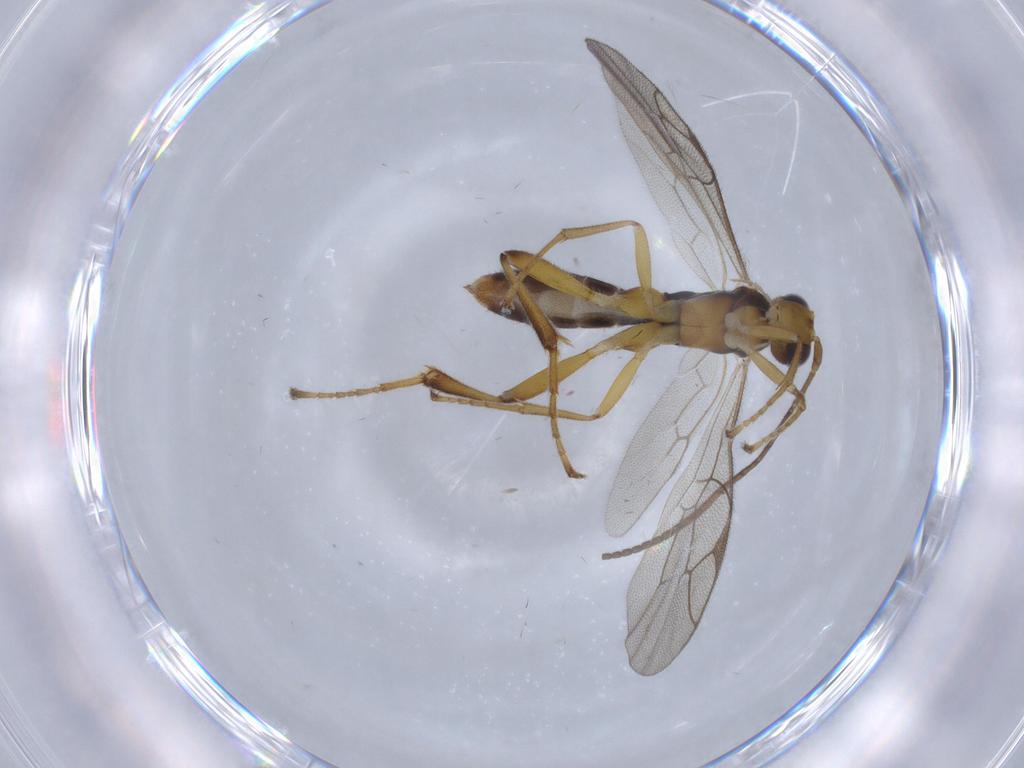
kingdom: Animalia
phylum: Arthropoda
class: Insecta
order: Hymenoptera
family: Ichneumonidae
